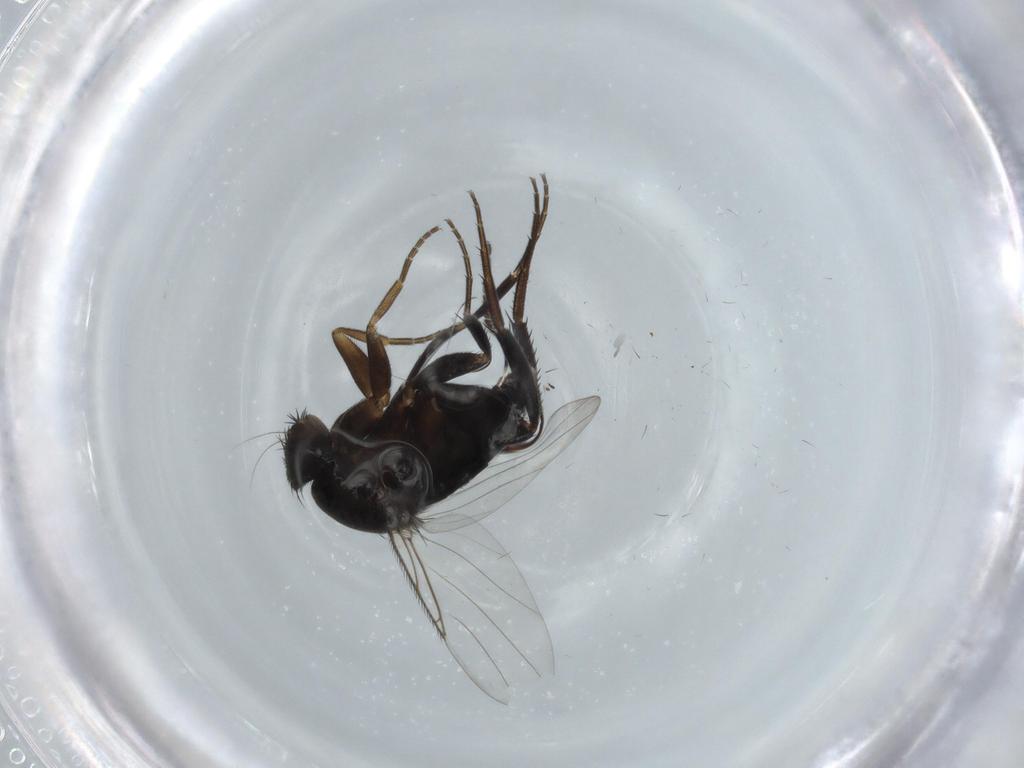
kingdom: Animalia
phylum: Arthropoda
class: Insecta
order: Diptera
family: Phoridae
